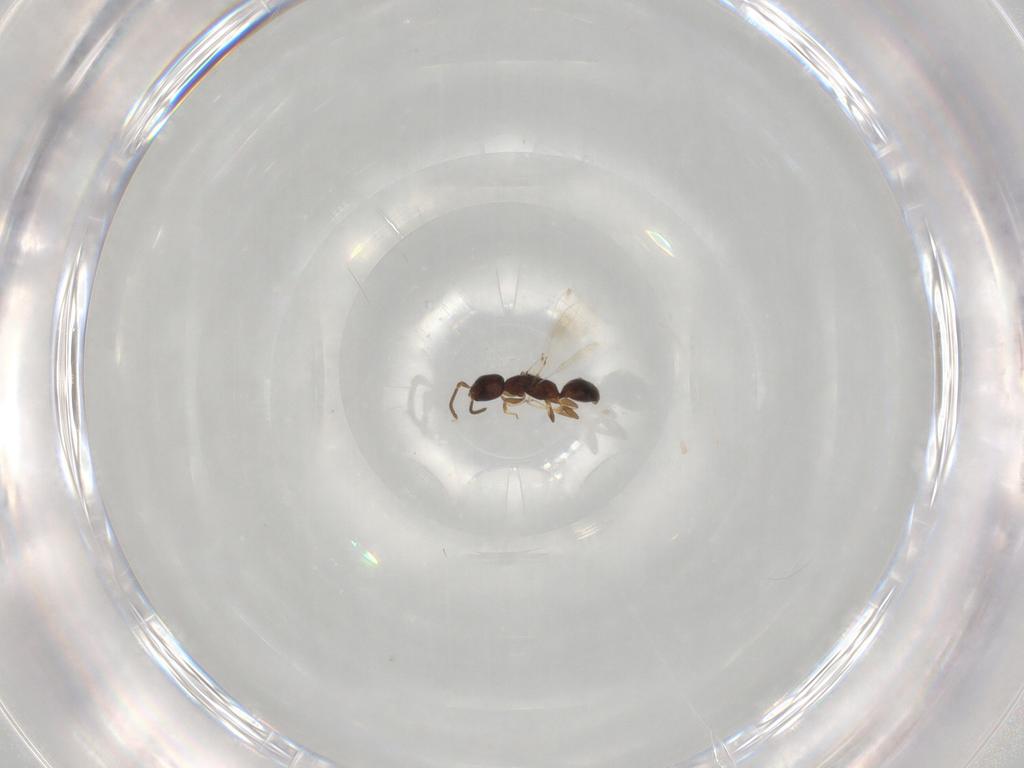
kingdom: Animalia
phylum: Arthropoda
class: Insecta
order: Hymenoptera
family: Bethylidae
